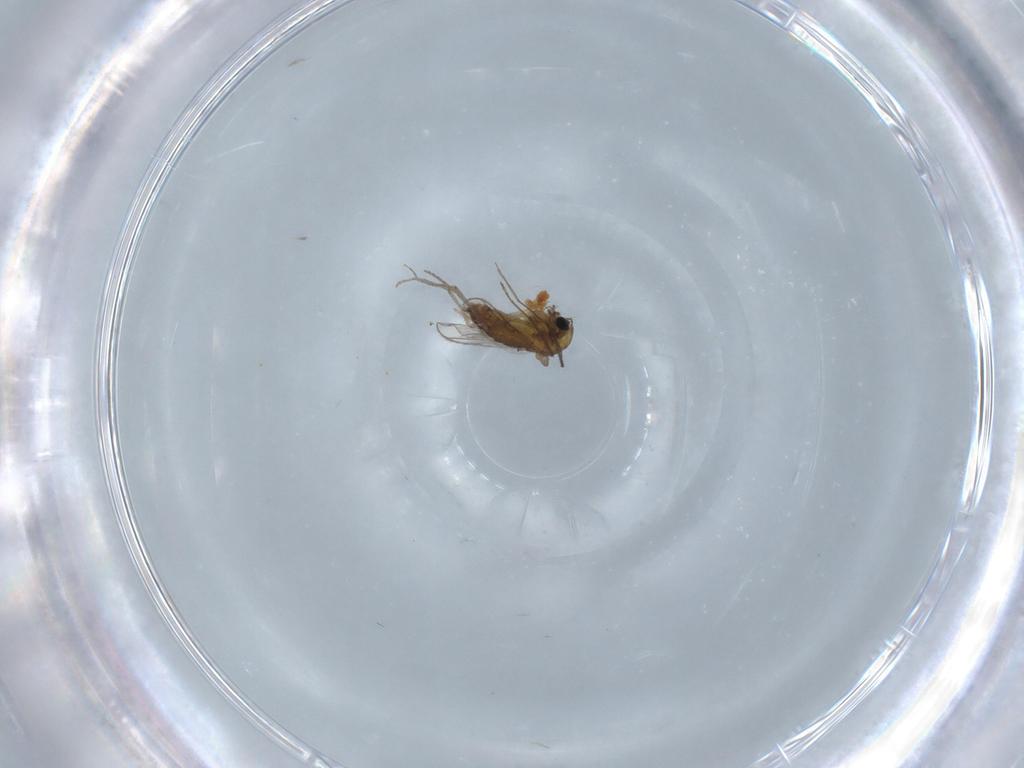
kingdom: Animalia
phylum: Arthropoda
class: Insecta
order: Diptera
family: Chironomidae
